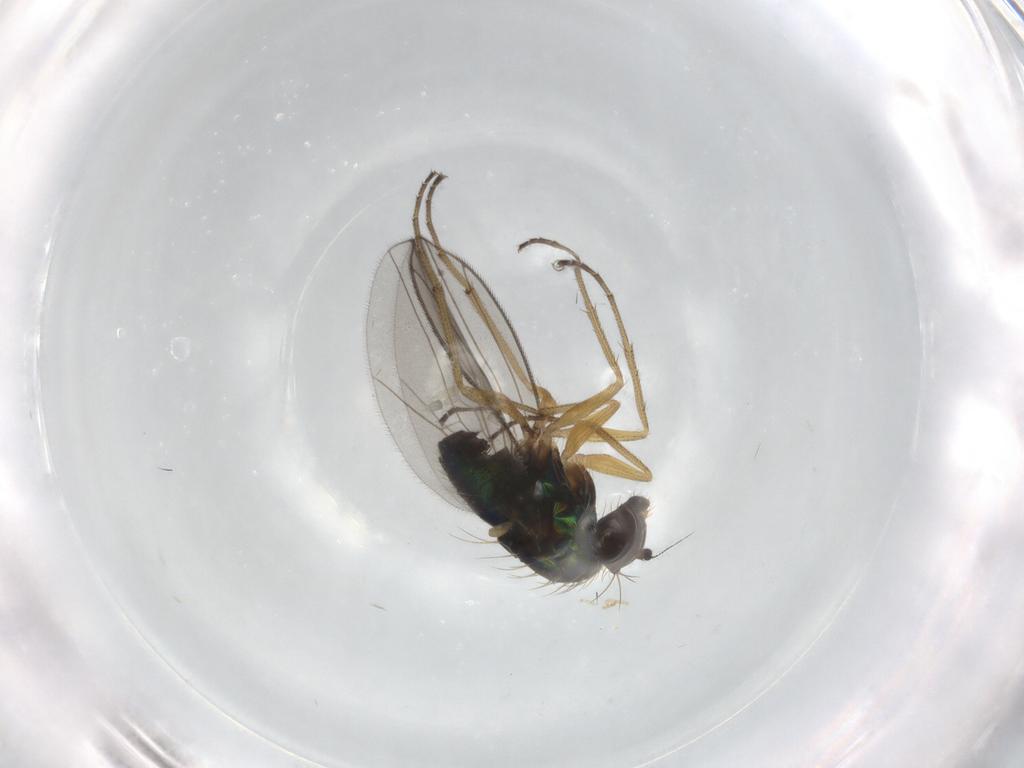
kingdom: Animalia
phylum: Arthropoda
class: Insecta
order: Diptera
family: Dolichopodidae
